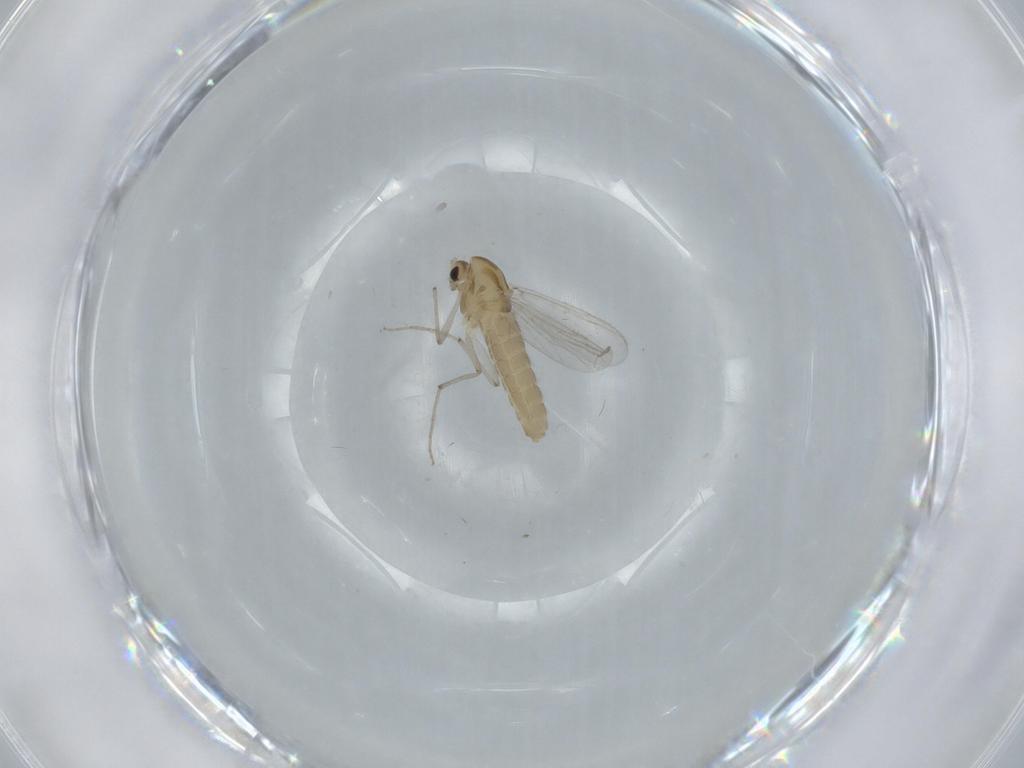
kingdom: Animalia
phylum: Arthropoda
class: Insecta
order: Diptera
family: Chironomidae
